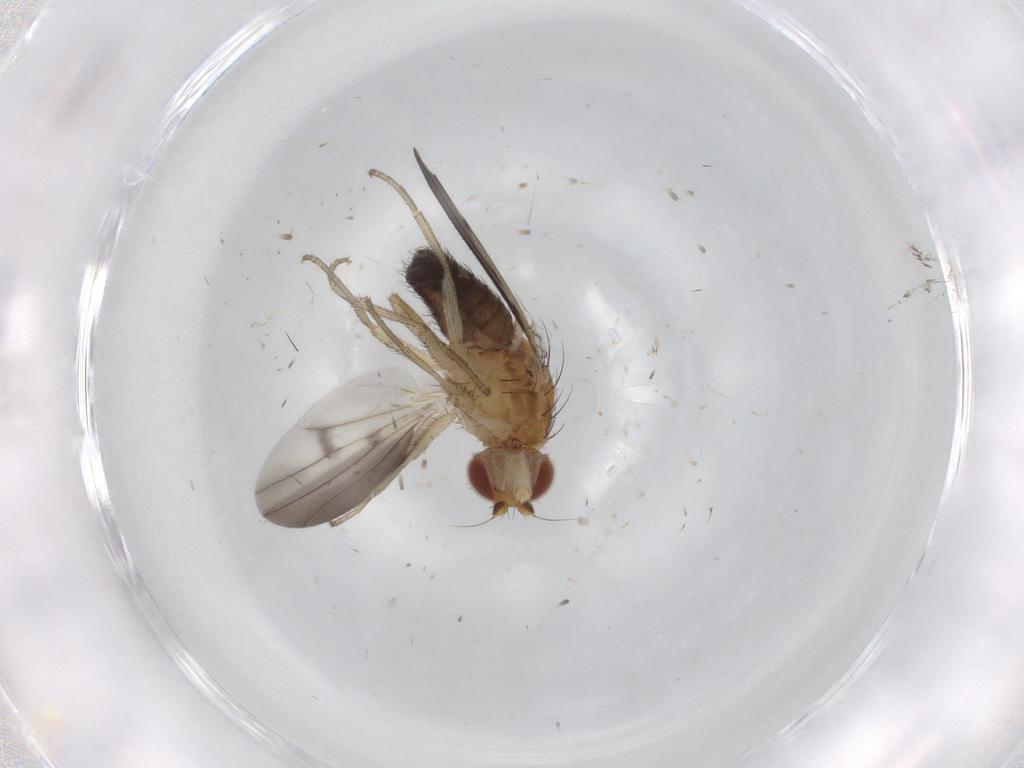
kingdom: Animalia
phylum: Arthropoda
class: Insecta
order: Diptera
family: Heleomyzidae
